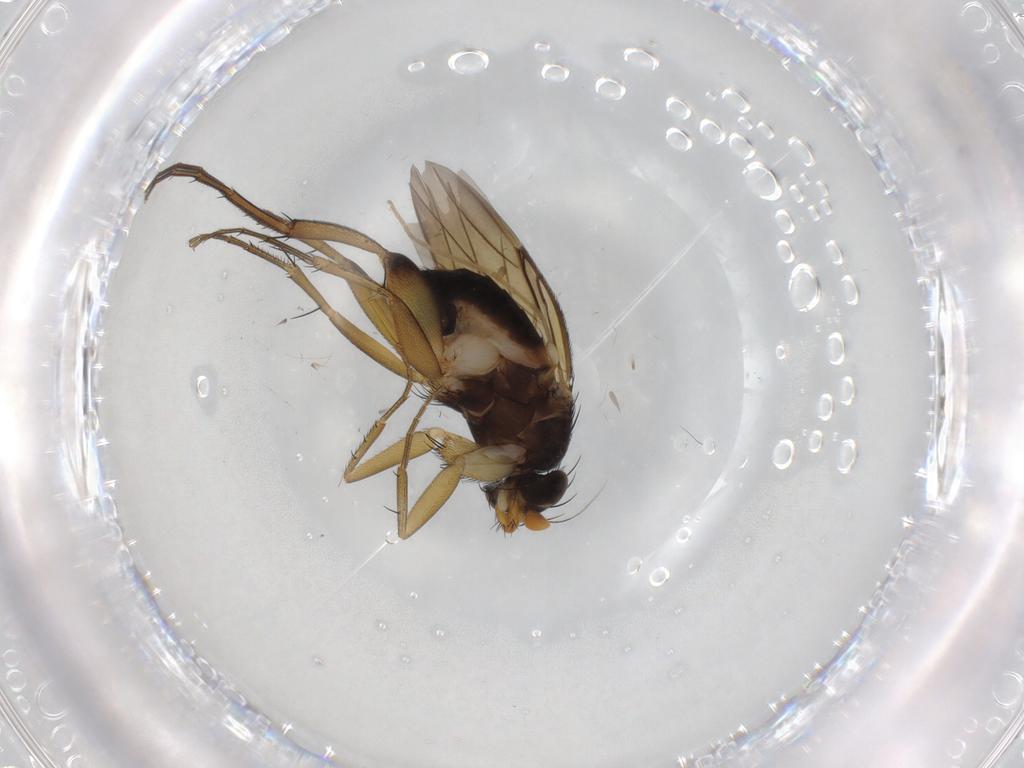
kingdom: Animalia
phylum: Arthropoda
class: Insecta
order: Diptera
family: Phoridae
